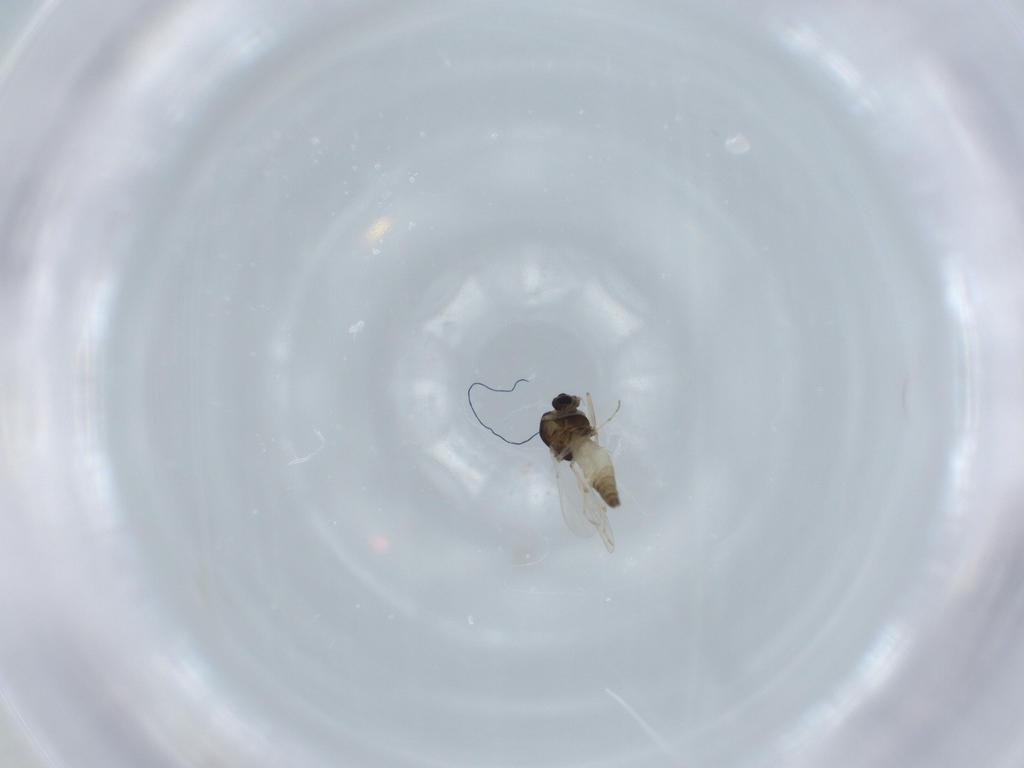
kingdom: Animalia
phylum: Arthropoda
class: Insecta
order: Diptera
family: Chironomidae
